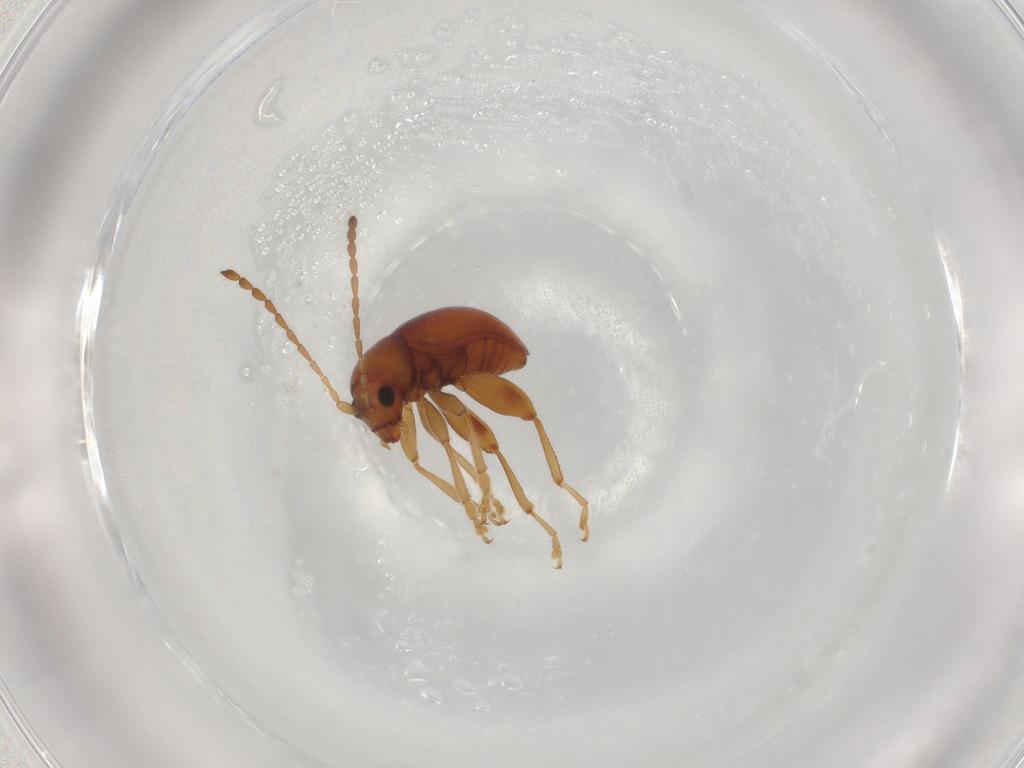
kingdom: Animalia
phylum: Arthropoda
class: Insecta
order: Coleoptera
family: Chrysomelidae
